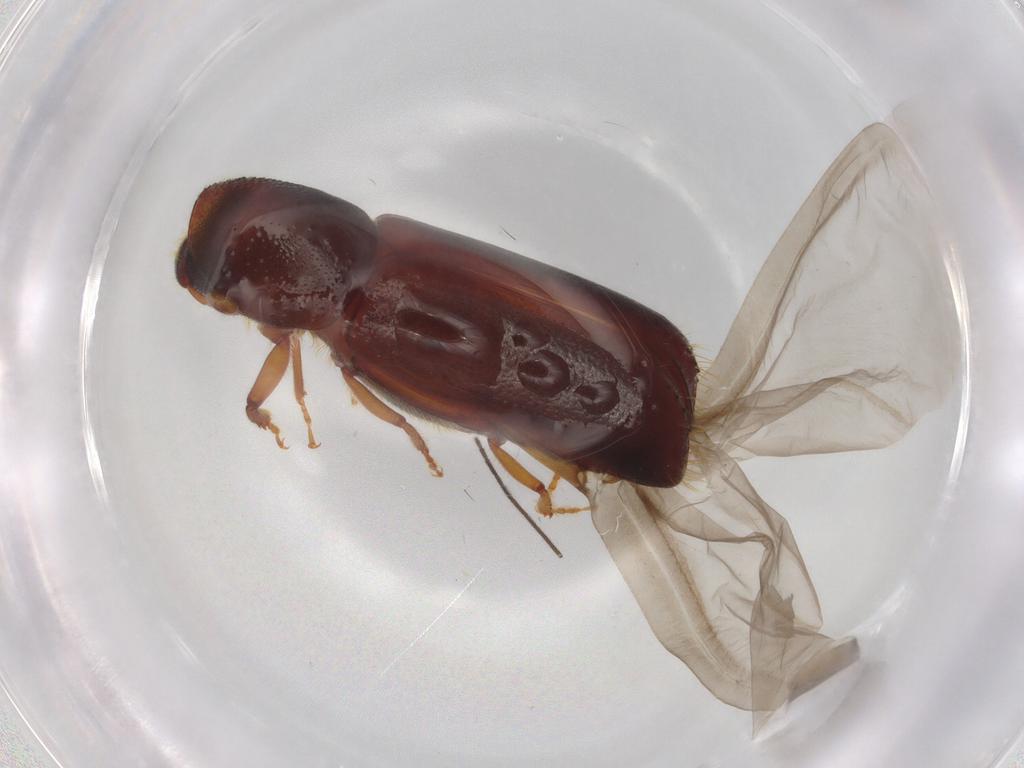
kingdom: Animalia
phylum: Arthropoda
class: Insecta
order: Coleoptera
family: Curculionidae
